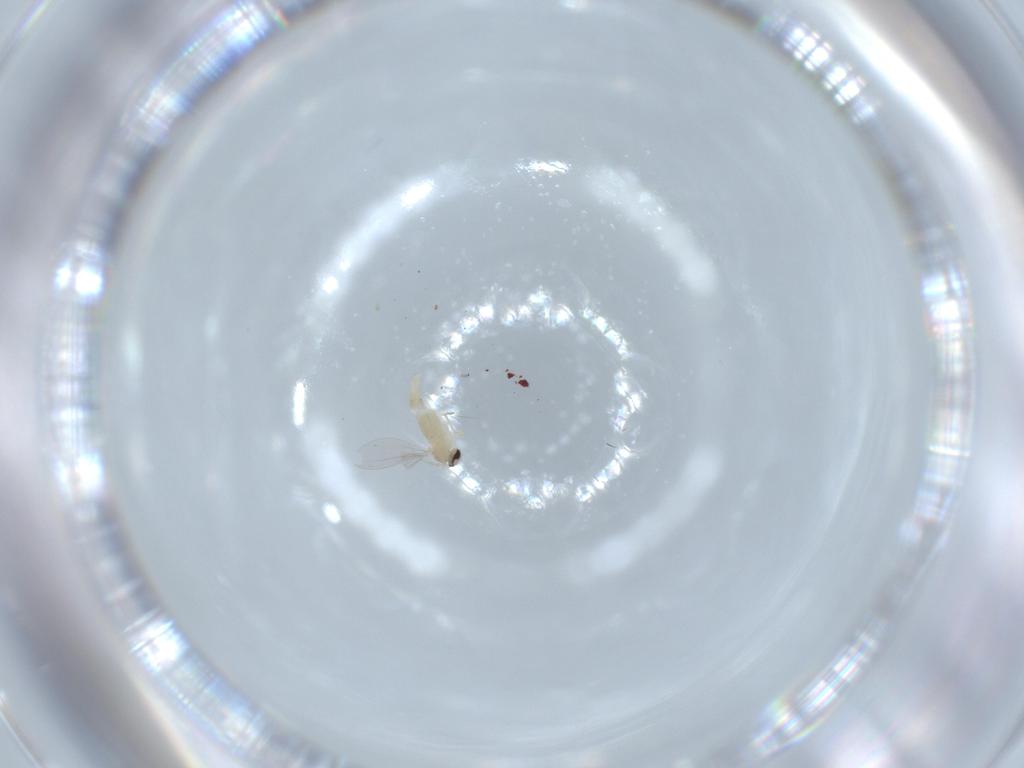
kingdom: Animalia
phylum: Arthropoda
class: Insecta
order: Diptera
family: Cecidomyiidae
